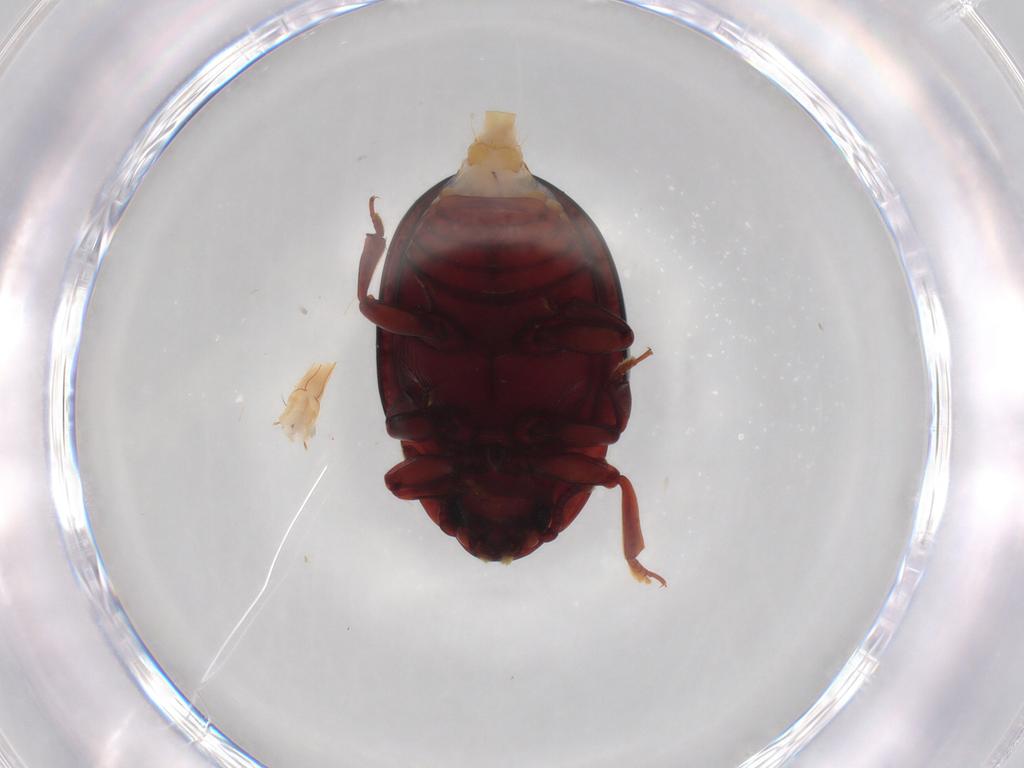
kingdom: Animalia
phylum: Arthropoda
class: Insecta
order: Coleoptera
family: Zopheridae
